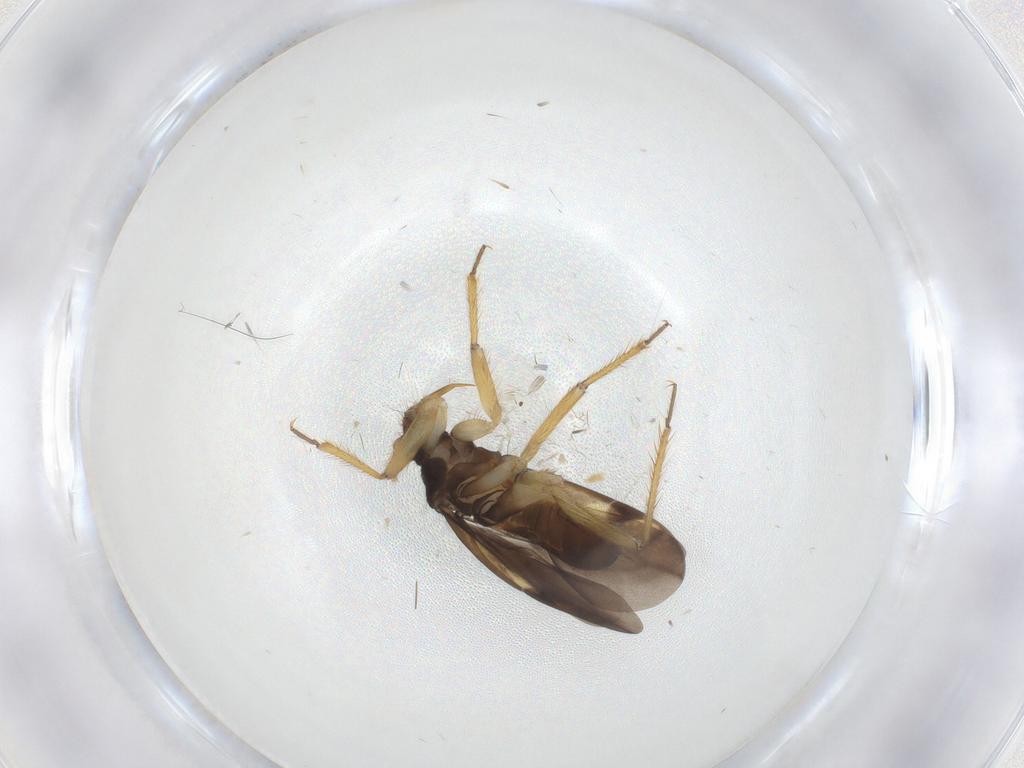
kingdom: Animalia
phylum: Arthropoda
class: Insecta
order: Hemiptera
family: Ceratocombidae
